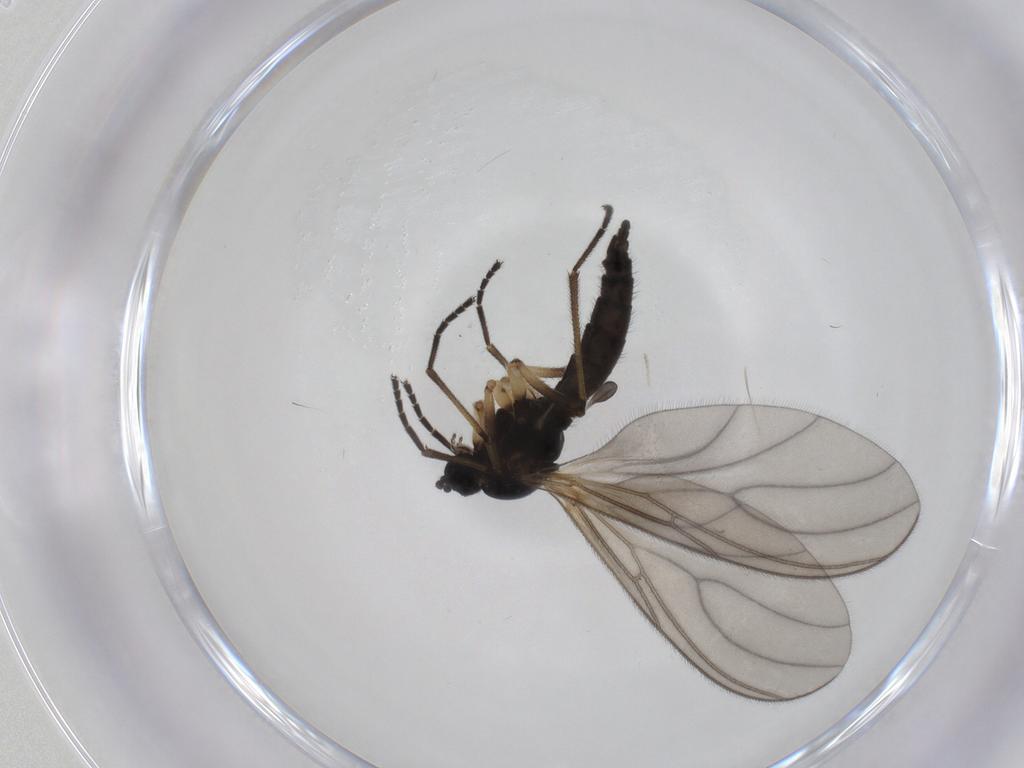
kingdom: Animalia
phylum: Arthropoda
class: Insecta
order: Diptera
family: Sciaridae
